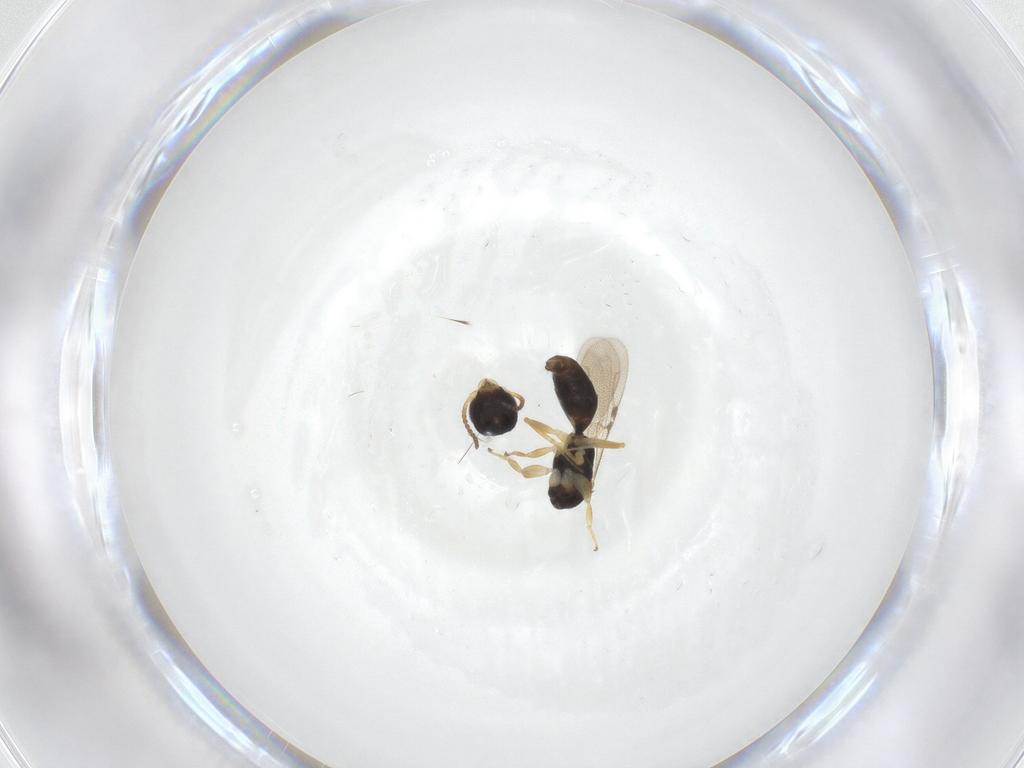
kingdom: Animalia
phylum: Arthropoda
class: Insecta
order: Hymenoptera
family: Bethylidae
